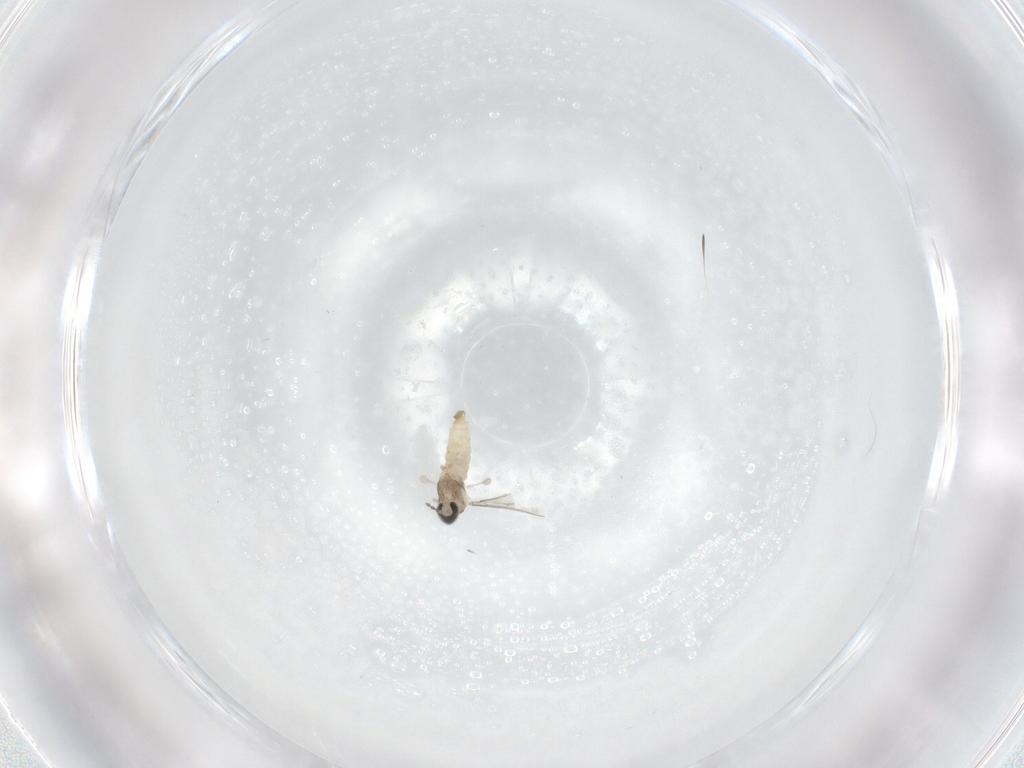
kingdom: Animalia
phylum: Arthropoda
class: Insecta
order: Diptera
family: Cecidomyiidae
